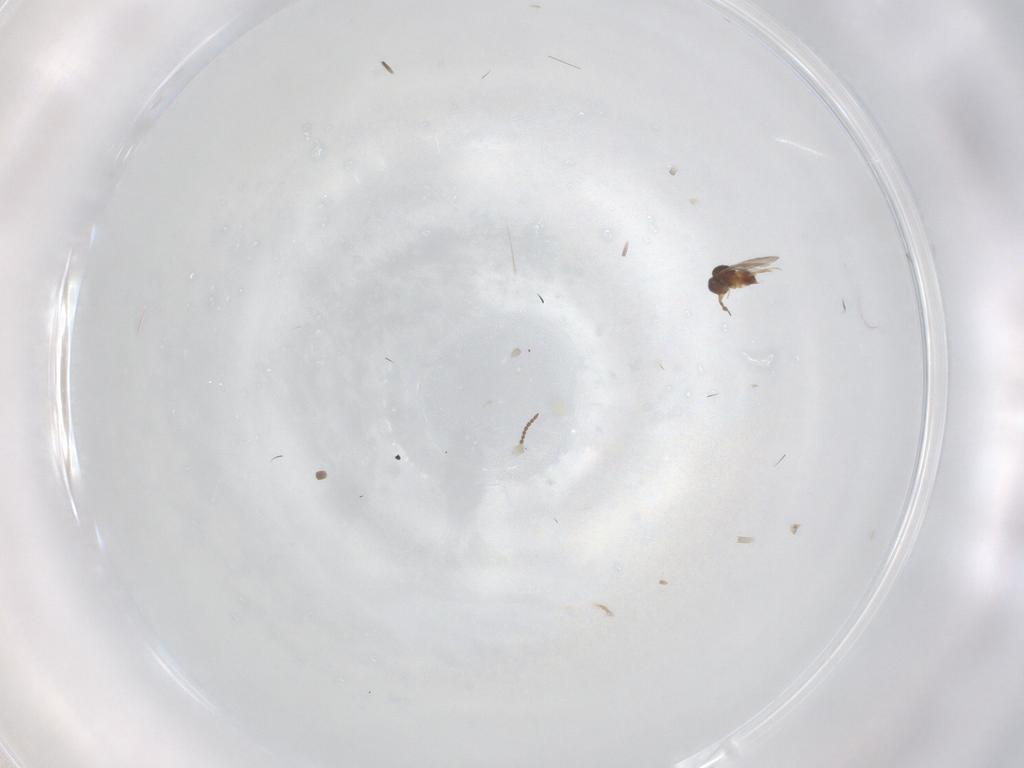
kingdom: Animalia
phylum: Arthropoda
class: Insecta
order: Hymenoptera
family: Ceraphronidae
